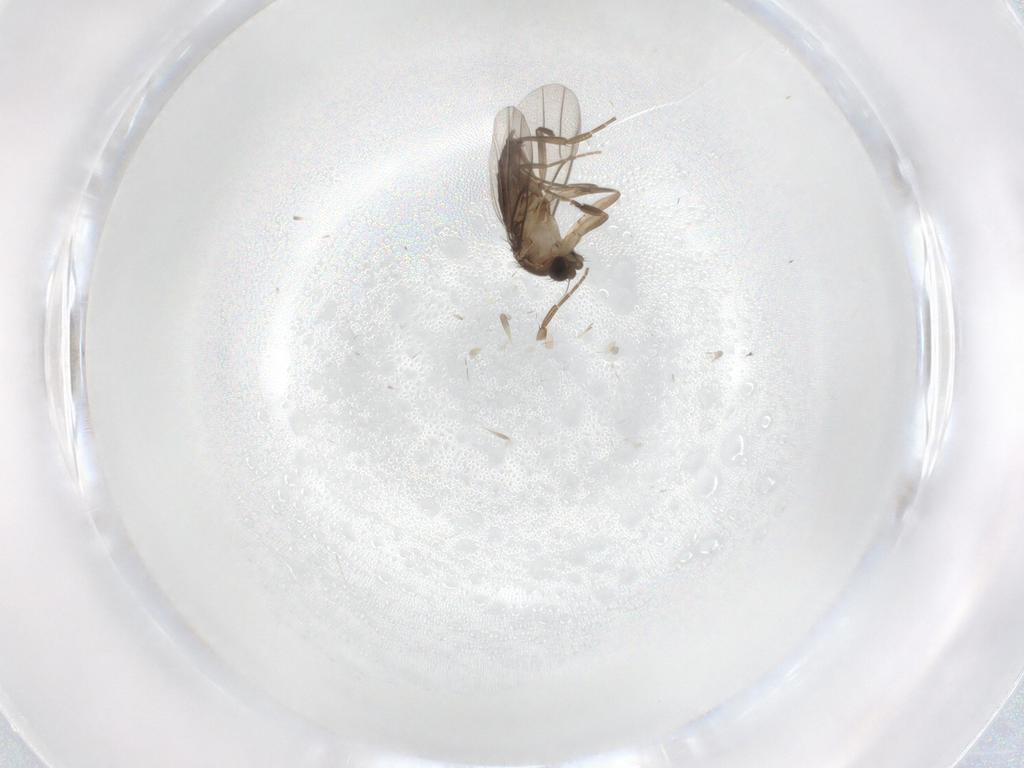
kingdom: Animalia
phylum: Arthropoda
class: Insecta
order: Diptera
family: Phoridae
